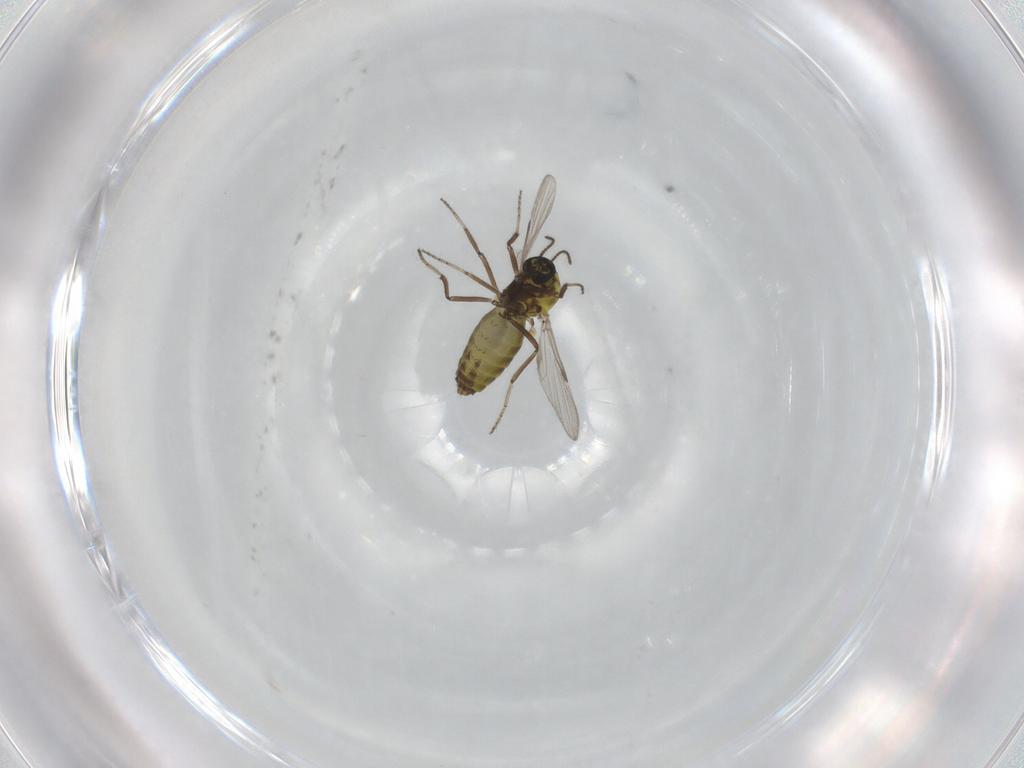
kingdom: Animalia
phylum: Arthropoda
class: Insecta
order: Diptera
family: Ceratopogonidae
